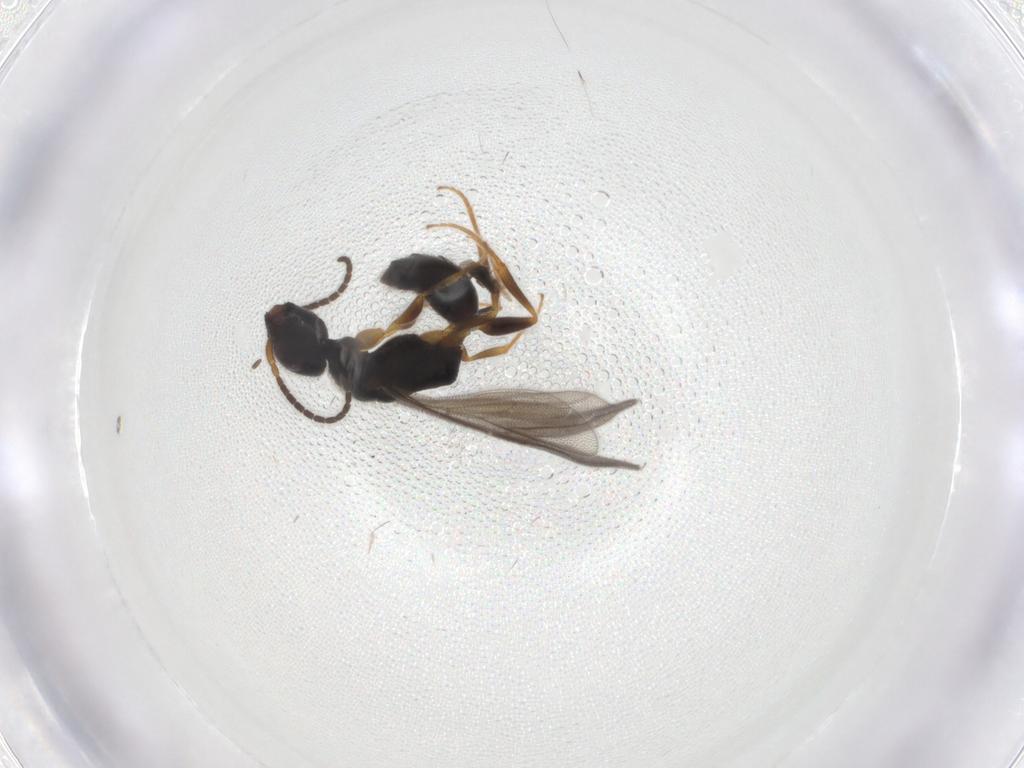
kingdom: Animalia
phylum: Arthropoda
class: Insecta
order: Hymenoptera
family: Bethylidae
